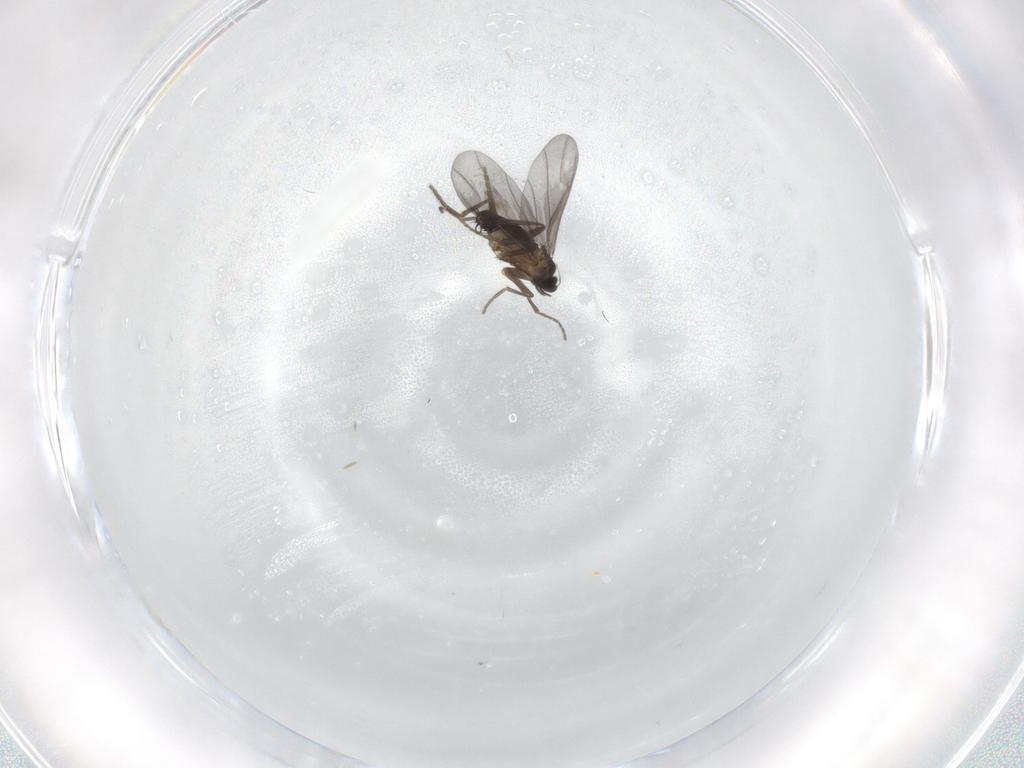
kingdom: Animalia
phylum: Arthropoda
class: Insecta
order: Diptera
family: Phoridae
